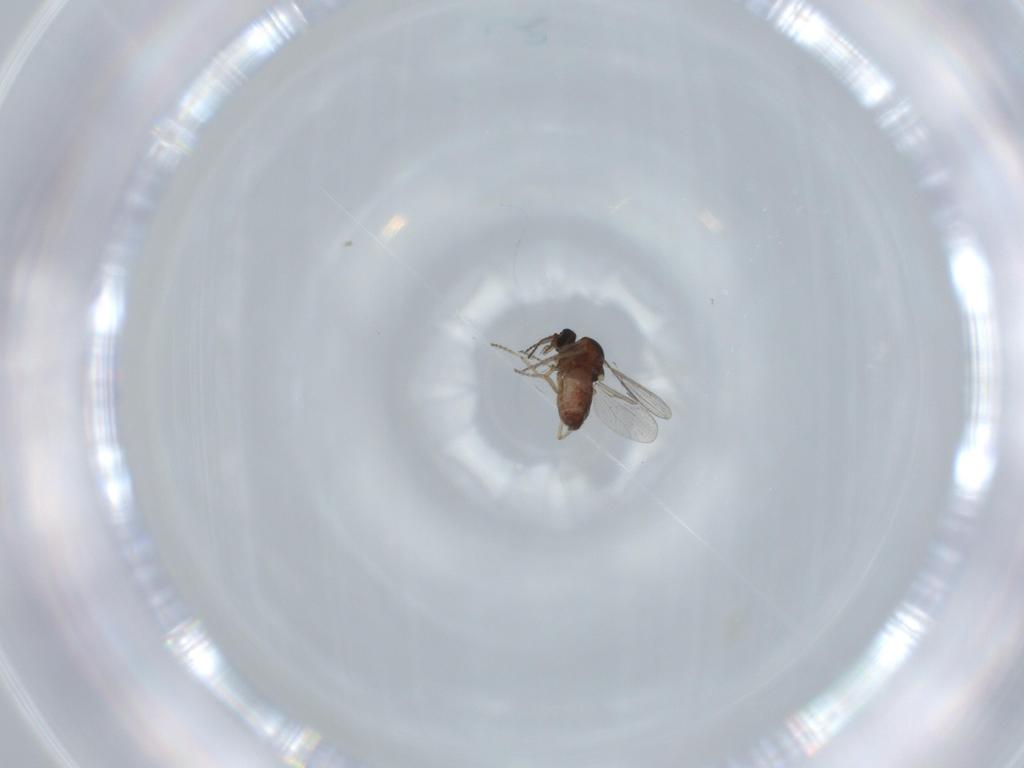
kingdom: Animalia
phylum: Arthropoda
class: Insecta
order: Diptera
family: Ceratopogonidae
